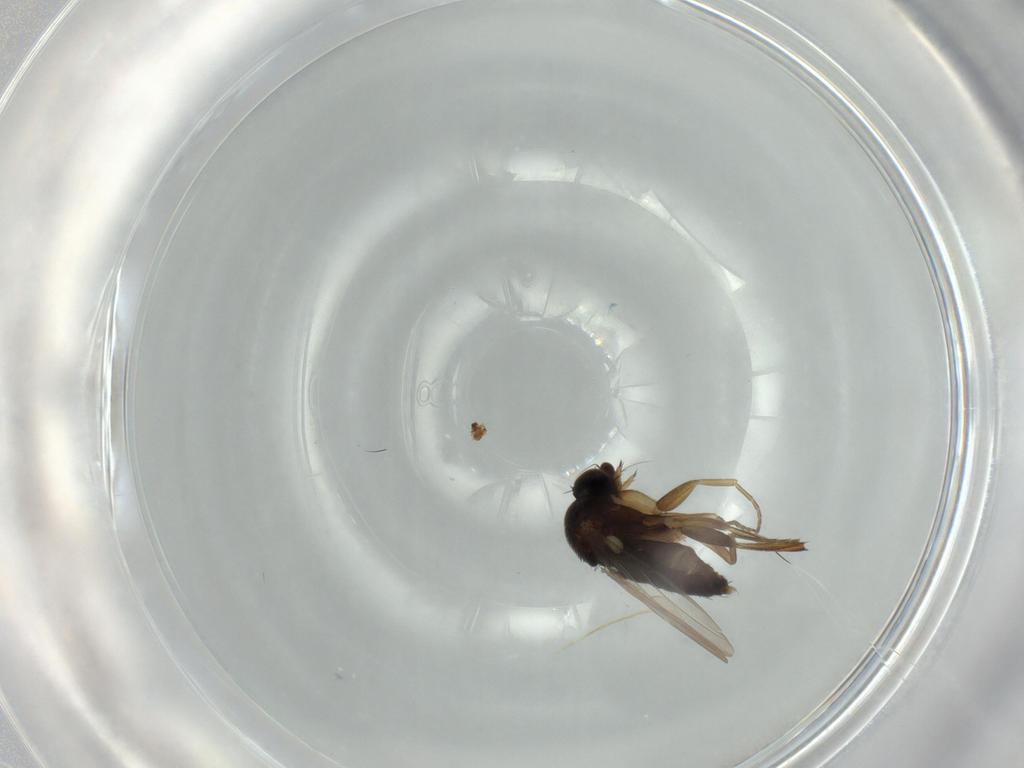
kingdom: Animalia
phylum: Arthropoda
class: Insecta
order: Diptera
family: Phoridae
